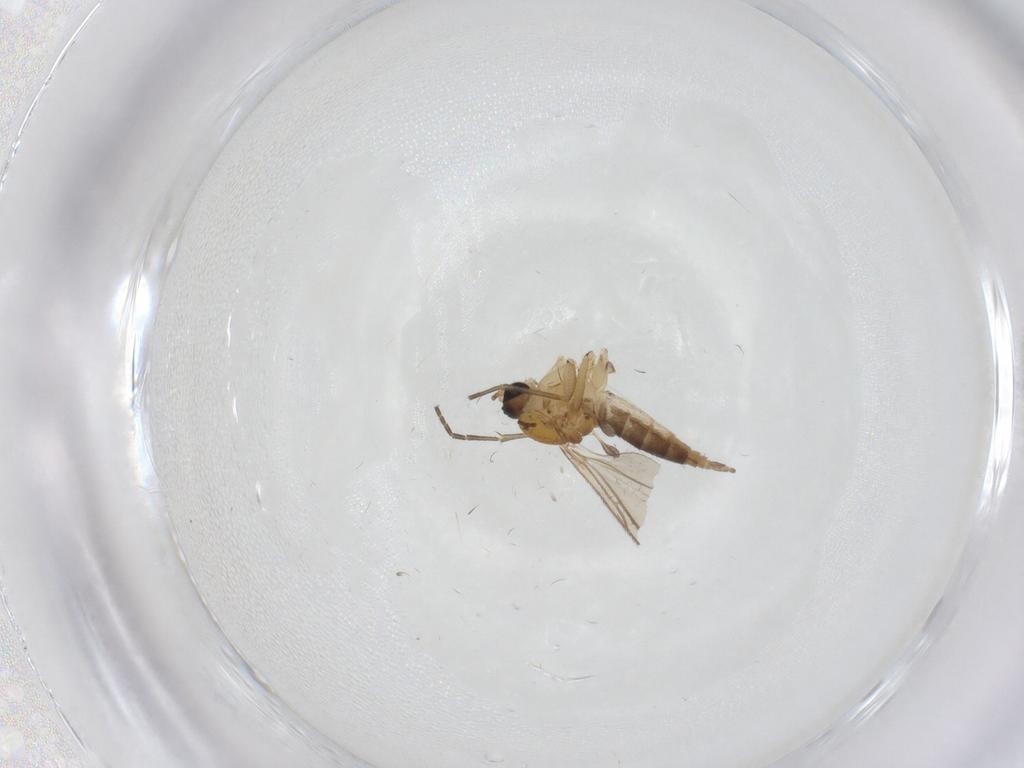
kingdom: Animalia
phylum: Arthropoda
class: Insecta
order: Diptera
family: Sciaridae
